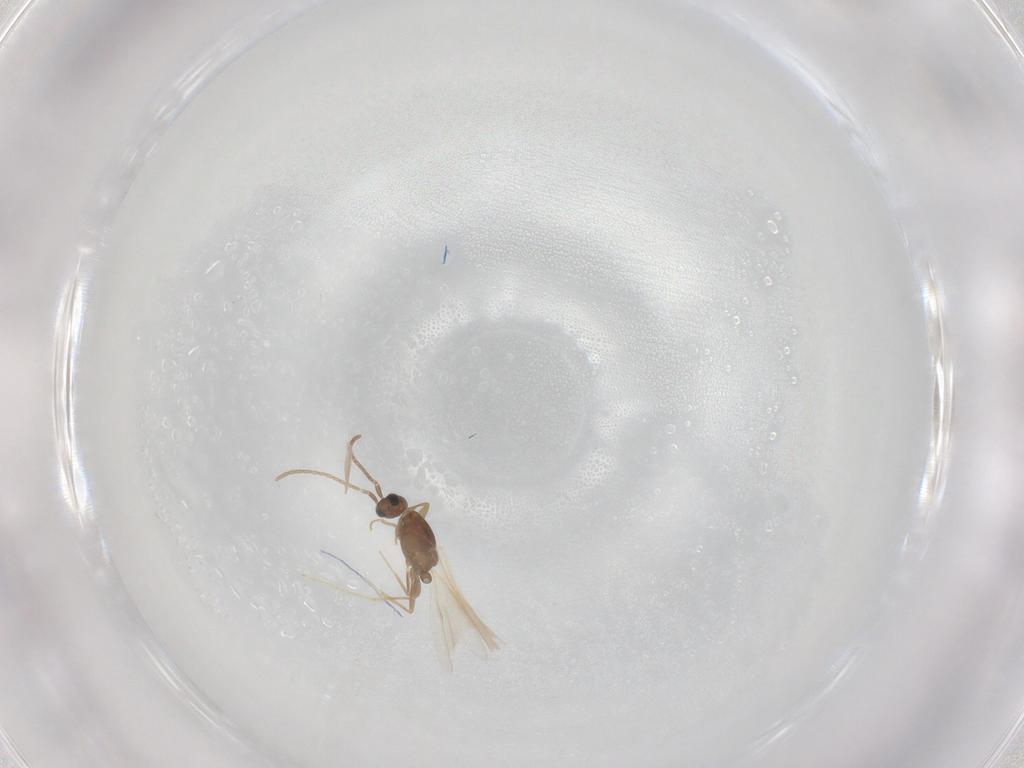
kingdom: Animalia
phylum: Arthropoda
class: Insecta
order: Hymenoptera
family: Formicidae
